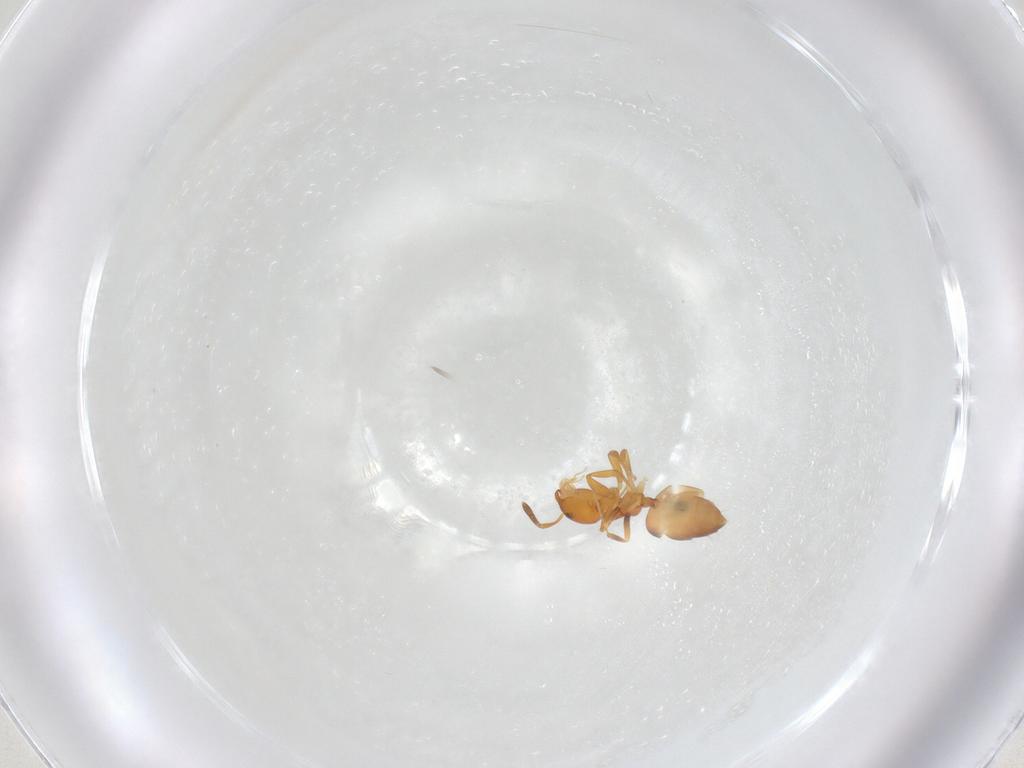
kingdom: Animalia
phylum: Arthropoda
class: Insecta
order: Hymenoptera
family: Formicidae
